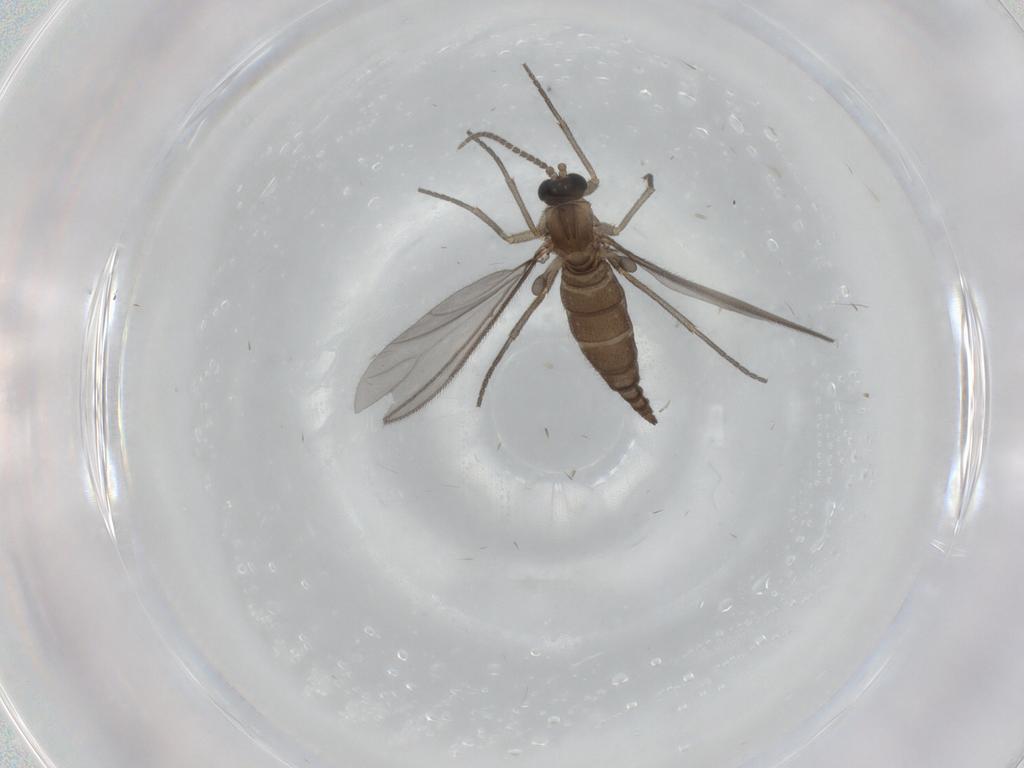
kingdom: Animalia
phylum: Arthropoda
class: Insecta
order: Diptera
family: Sciaridae
